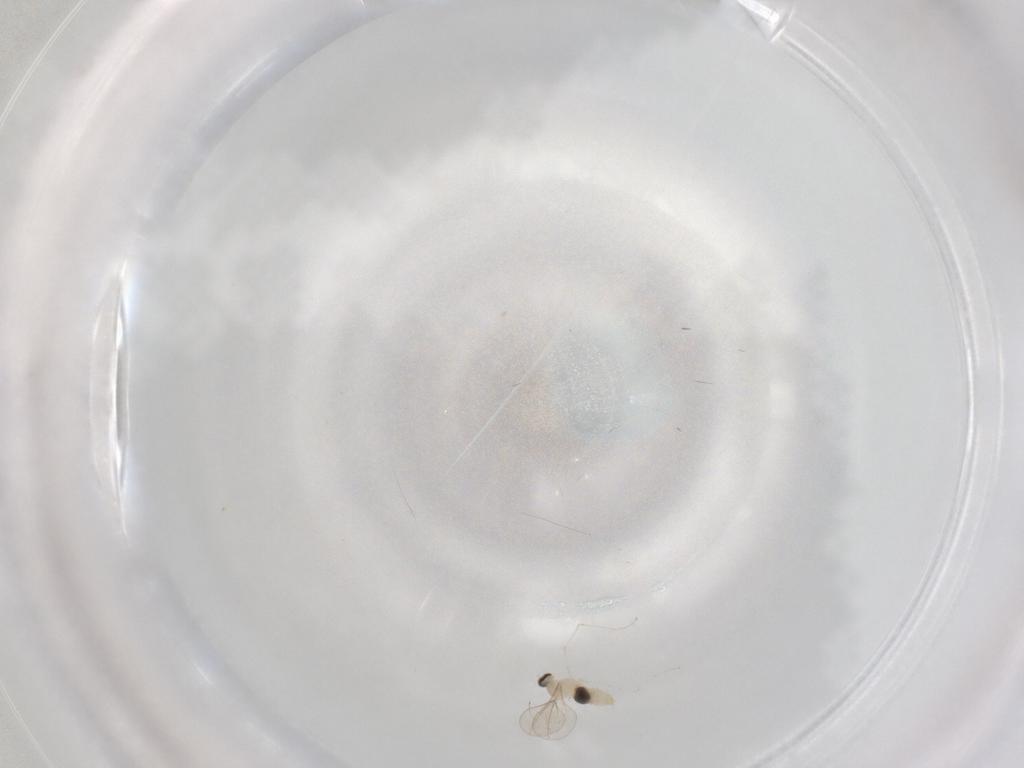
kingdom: Animalia
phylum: Arthropoda
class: Insecta
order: Diptera
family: Cecidomyiidae
